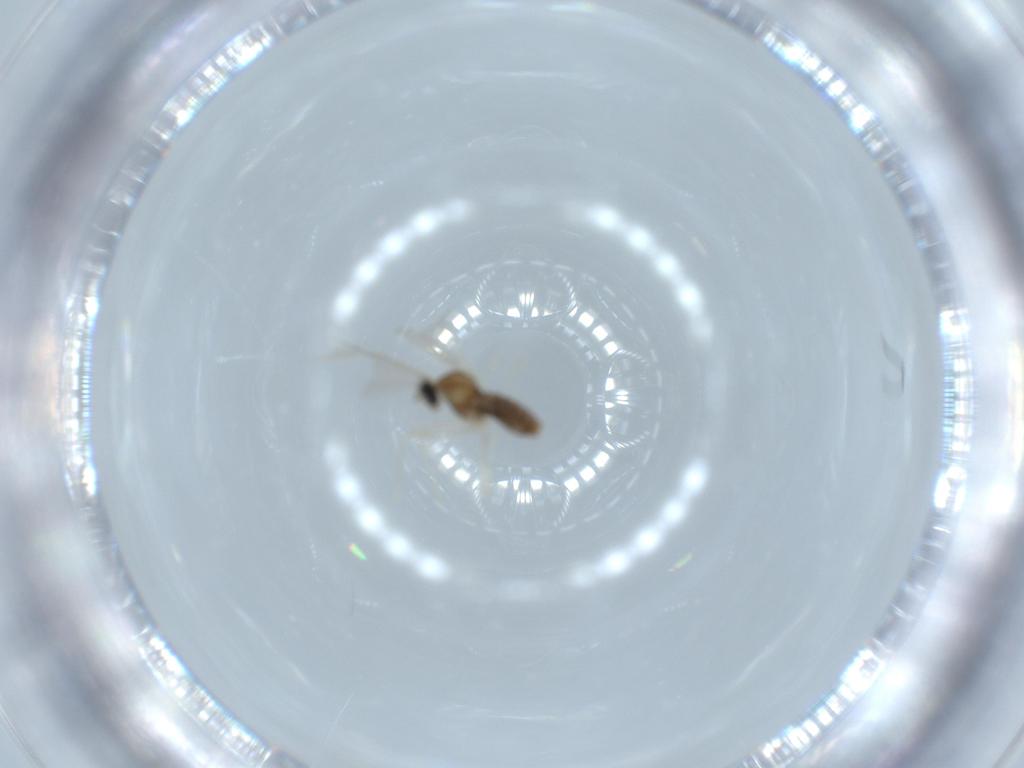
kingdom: Animalia
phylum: Arthropoda
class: Insecta
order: Diptera
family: Cecidomyiidae
